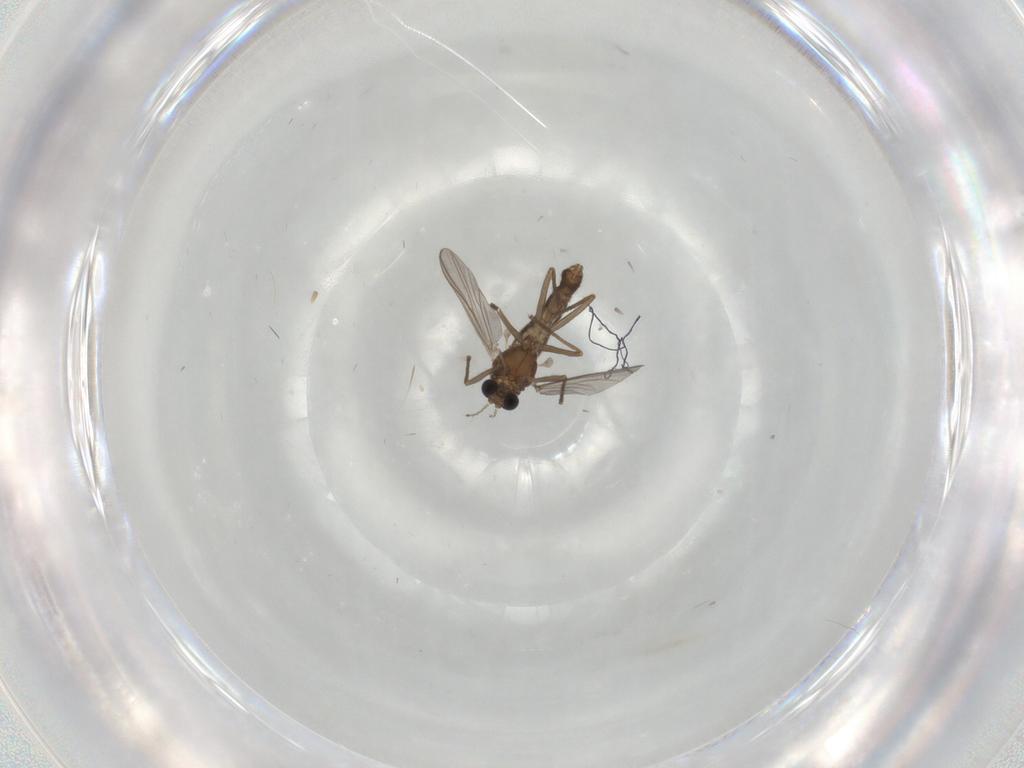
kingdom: Animalia
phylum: Arthropoda
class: Insecta
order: Diptera
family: Chironomidae
